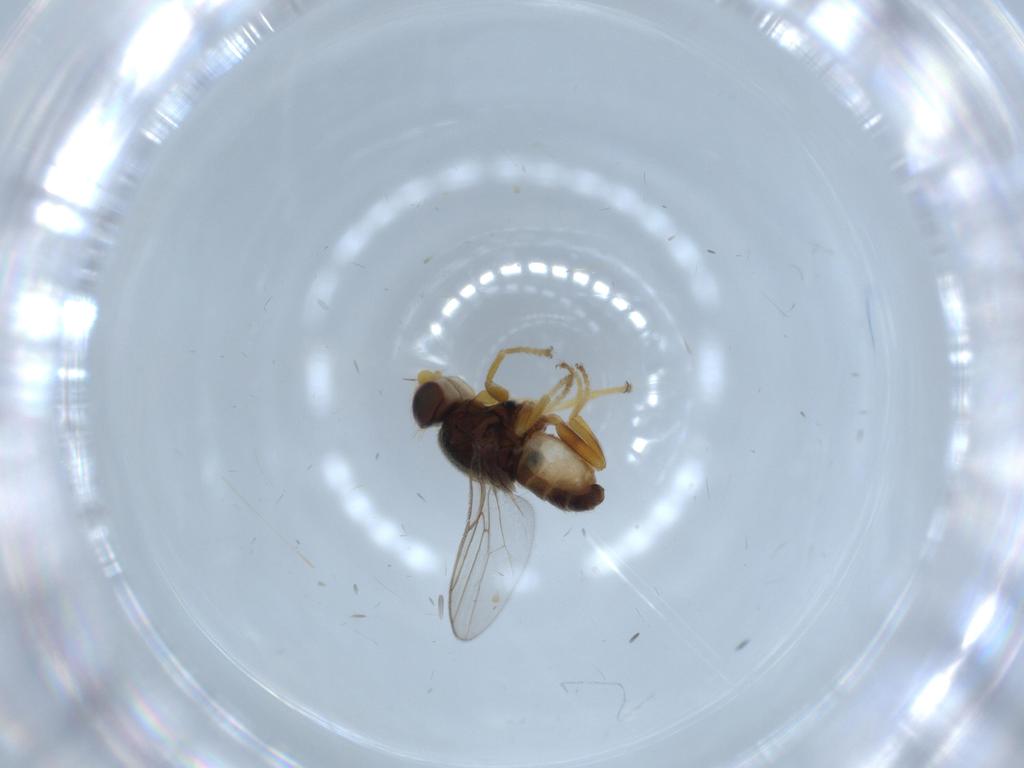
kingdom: Animalia
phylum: Arthropoda
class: Insecta
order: Diptera
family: Chloropidae
